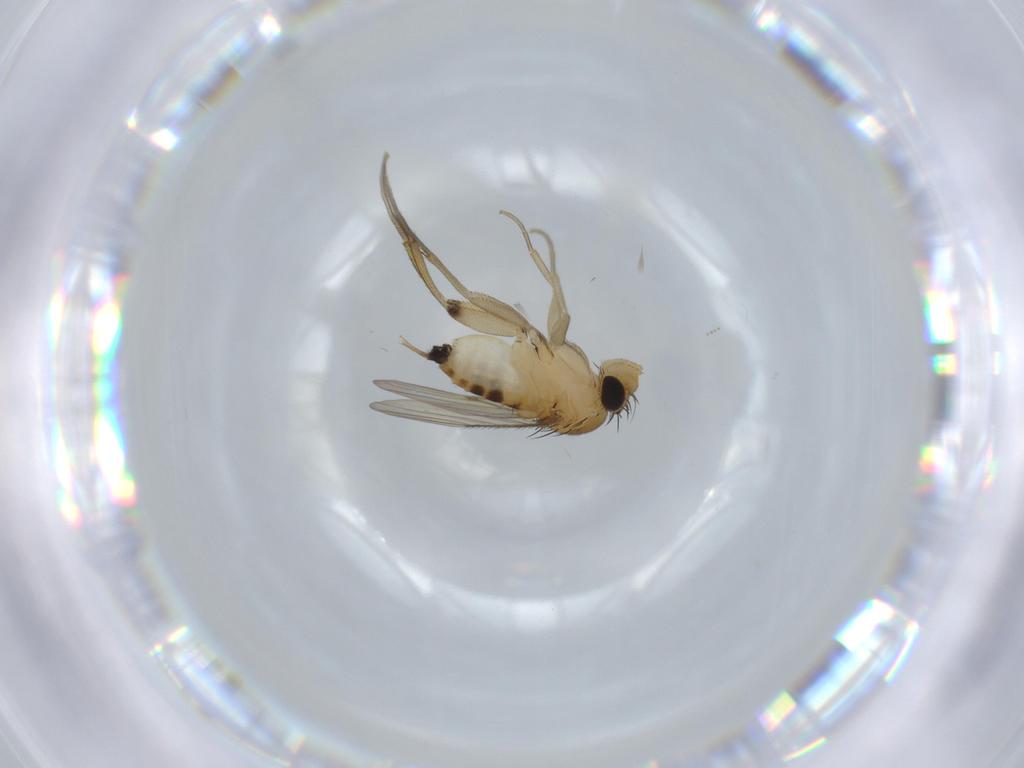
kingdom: Animalia
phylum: Arthropoda
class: Insecta
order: Diptera
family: Phoridae
